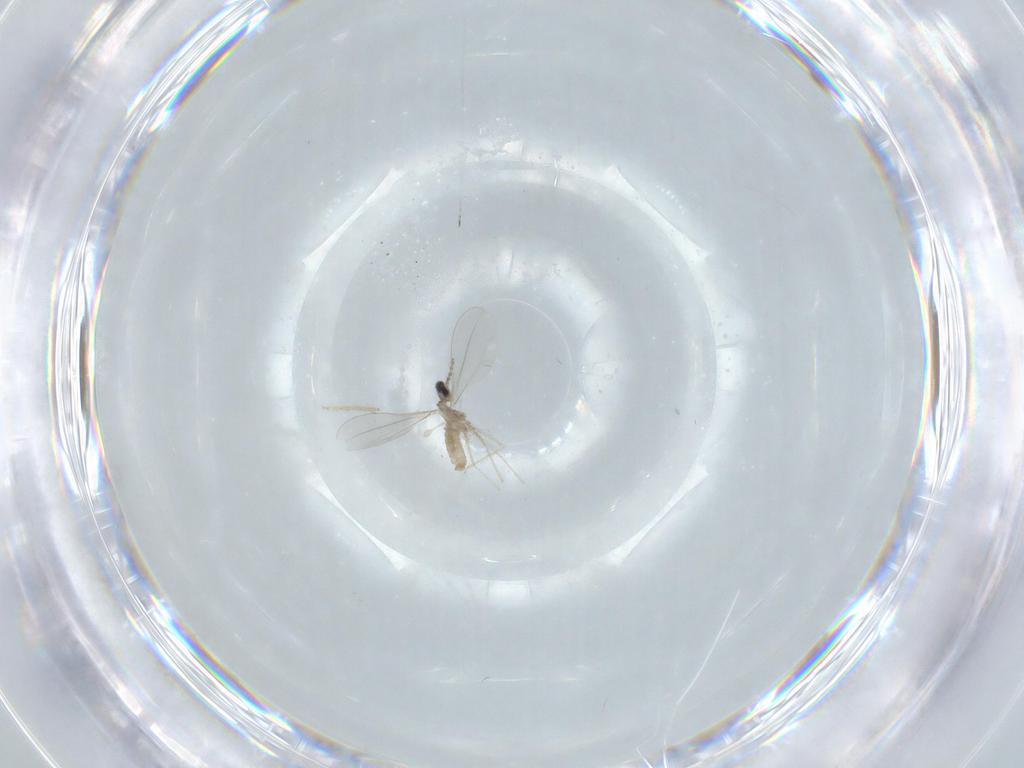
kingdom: Animalia
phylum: Arthropoda
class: Insecta
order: Diptera
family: Cecidomyiidae
